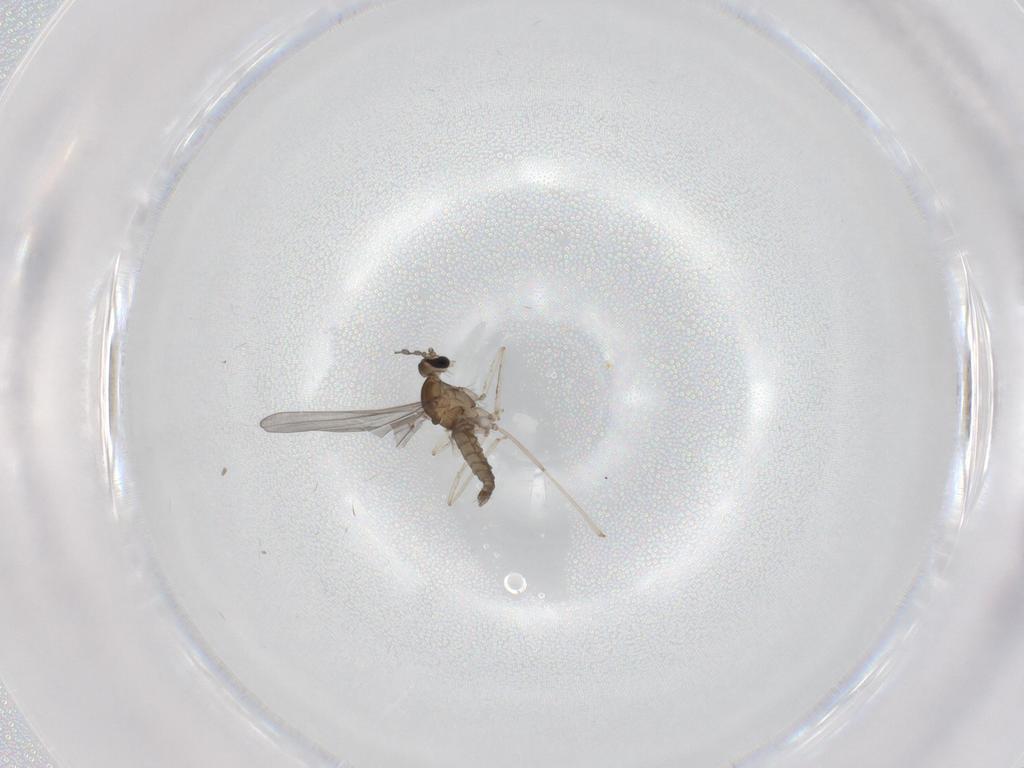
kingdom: Animalia
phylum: Arthropoda
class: Insecta
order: Diptera
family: Cecidomyiidae
